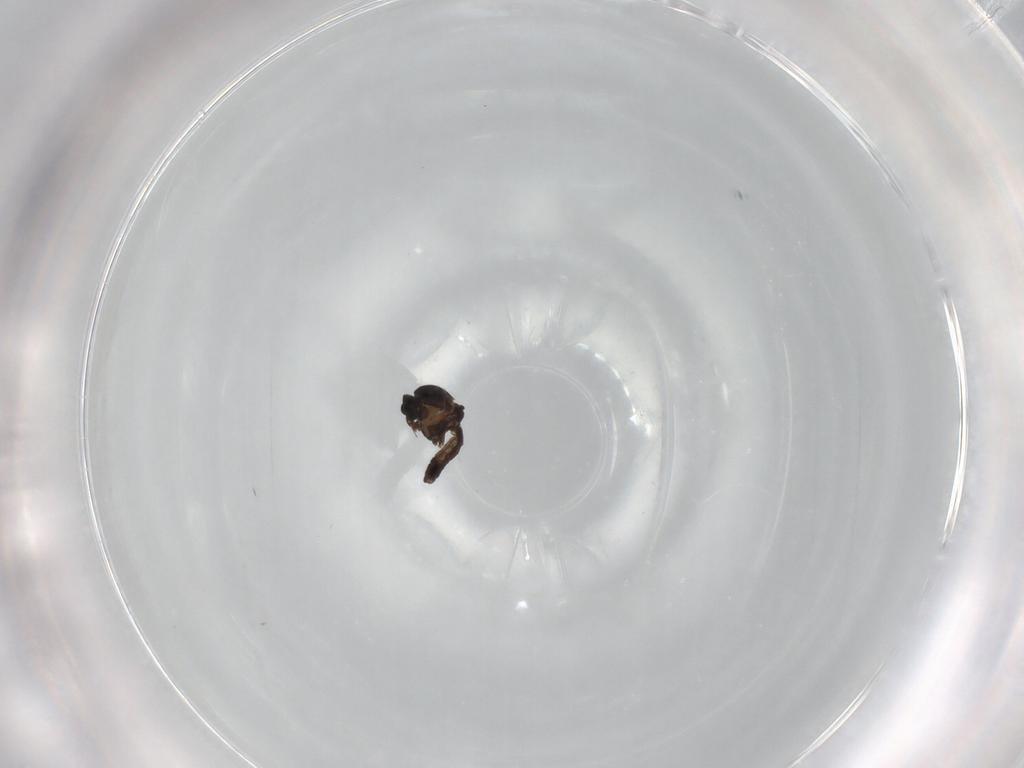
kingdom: Animalia
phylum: Arthropoda
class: Insecta
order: Diptera
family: Ceratopogonidae
